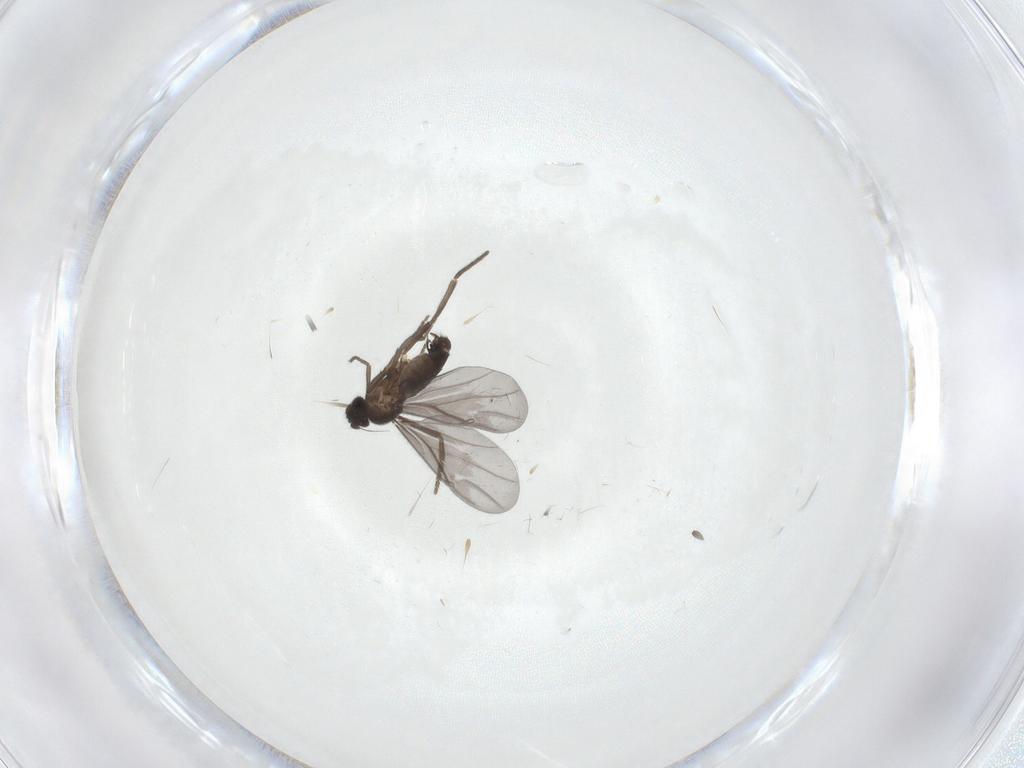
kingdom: Animalia
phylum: Arthropoda
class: Insecta
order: Diptera
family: Phoridae
